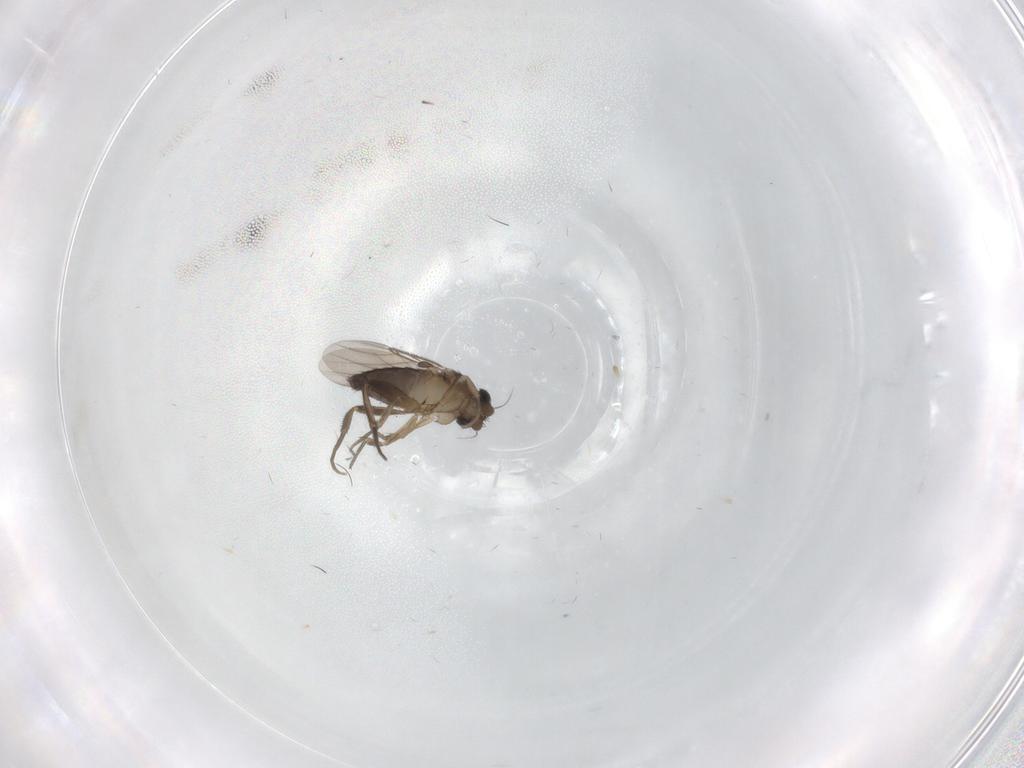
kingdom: Animalia
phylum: Arthropoda
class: Insecta
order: Diptera
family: Phoridae
